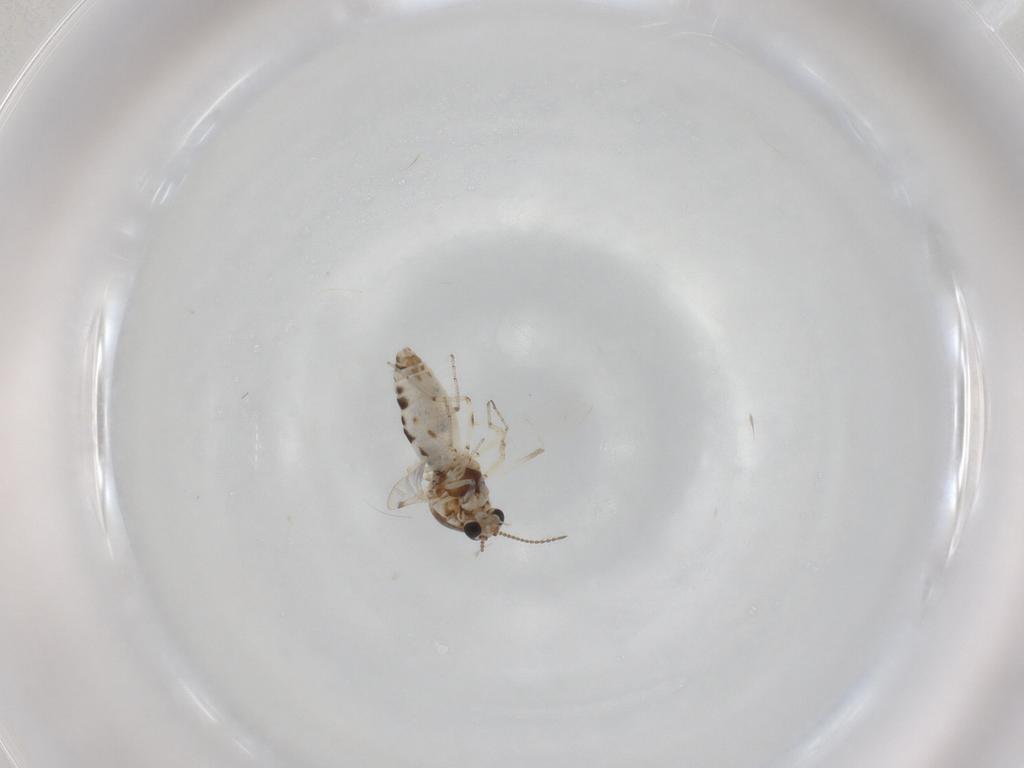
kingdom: Animalia
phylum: Arthropoda
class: Insecta
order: Diptera
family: Ceratopogonidae
